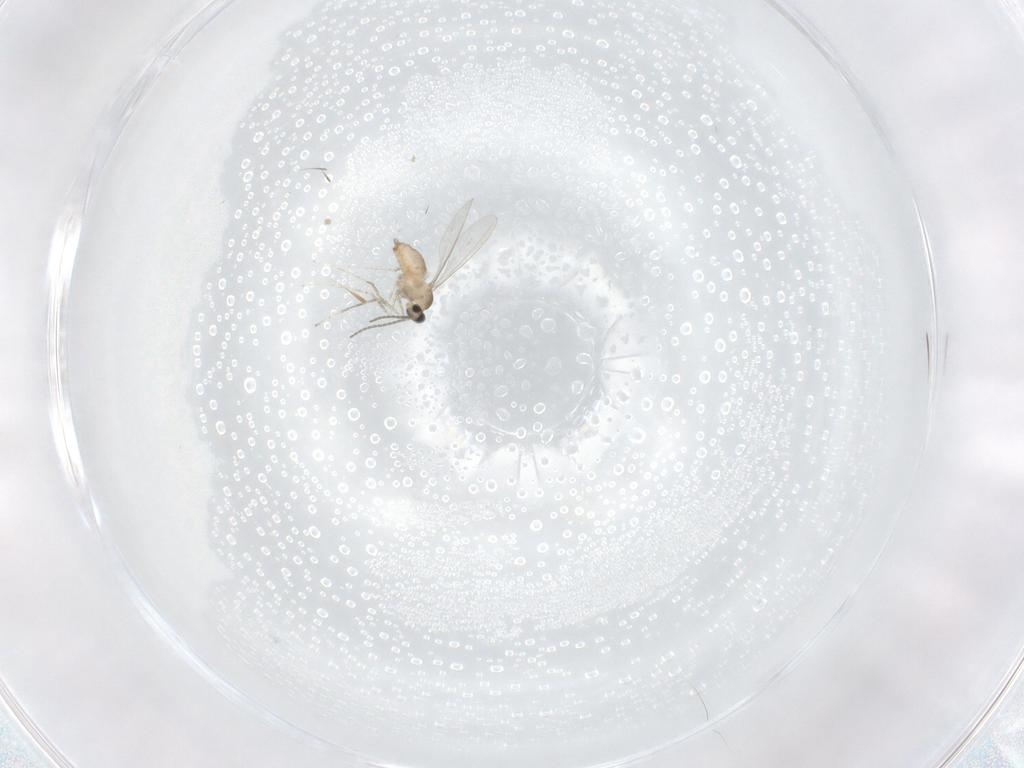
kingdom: Animalia
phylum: Arthropoda
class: Insecta
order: Diptera
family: Cecidomyiidae
